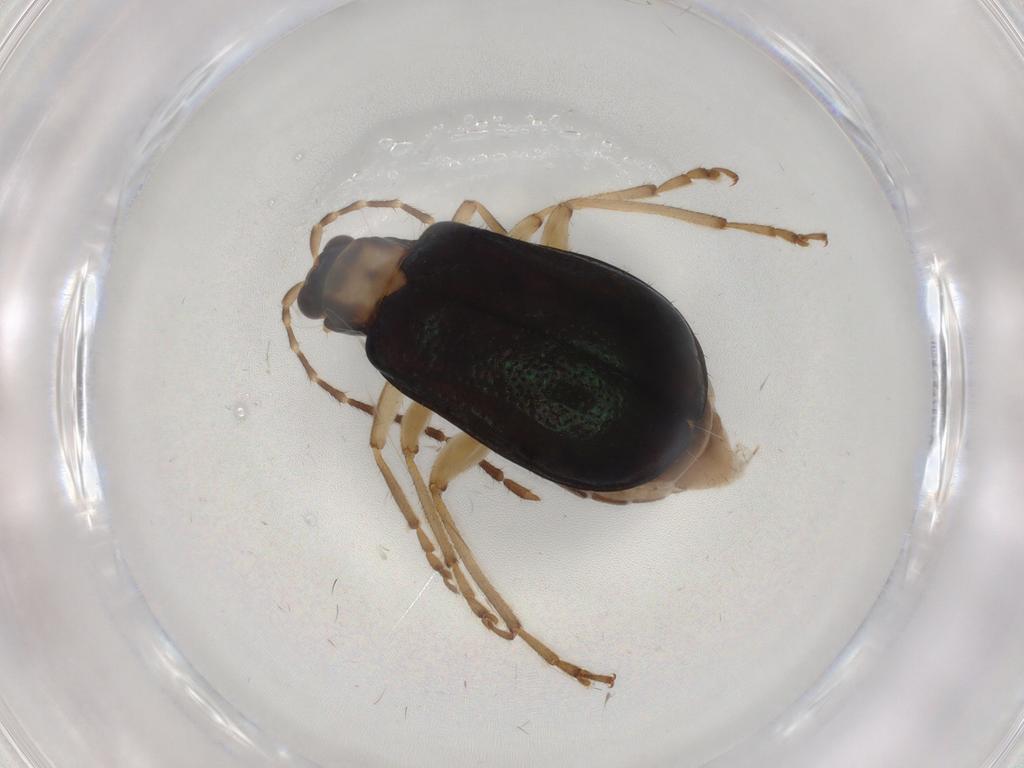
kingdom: Animalia
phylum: Arthropoda
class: Insecta
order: Coleoptera
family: Chrysomelidae
